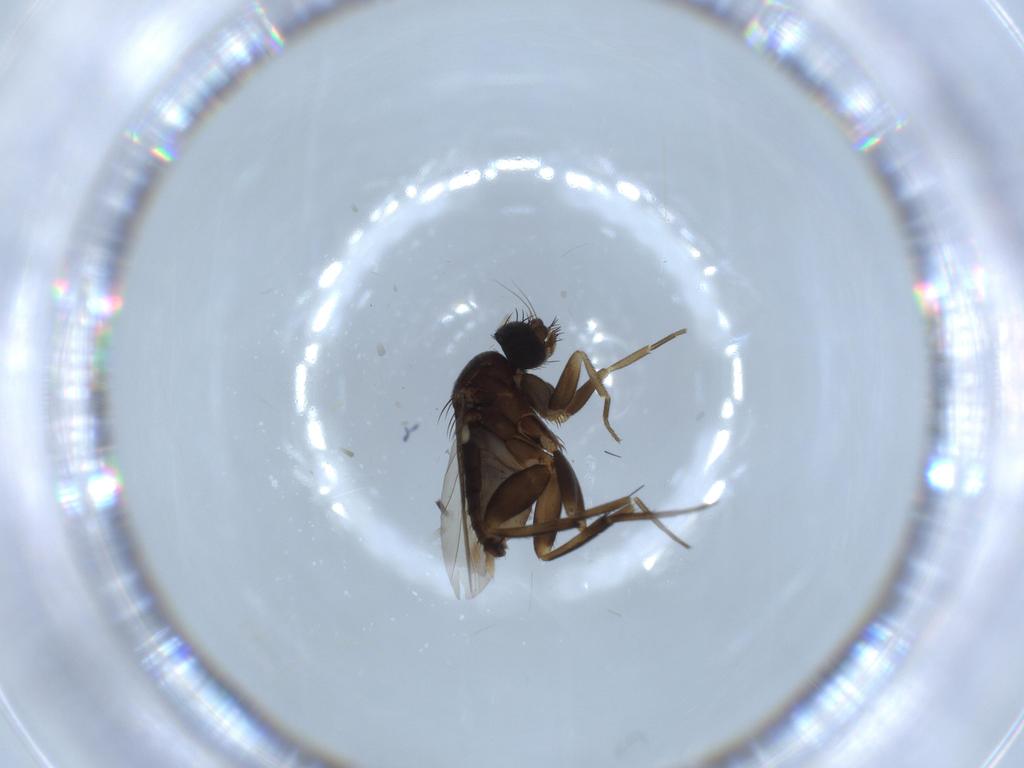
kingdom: Animalia
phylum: Arthropoda
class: Insecta
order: Diptera
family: Phoridae
